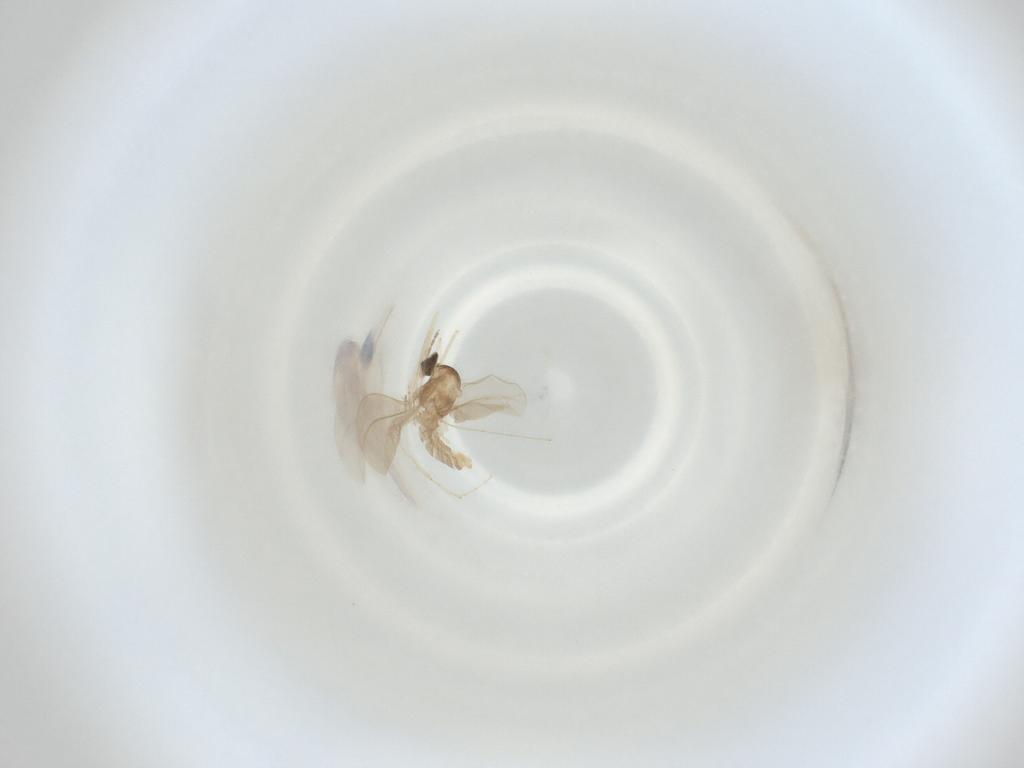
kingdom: Animalia
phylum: Arthropoda
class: Insecta
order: Diptera
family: Cecidomyiidae
